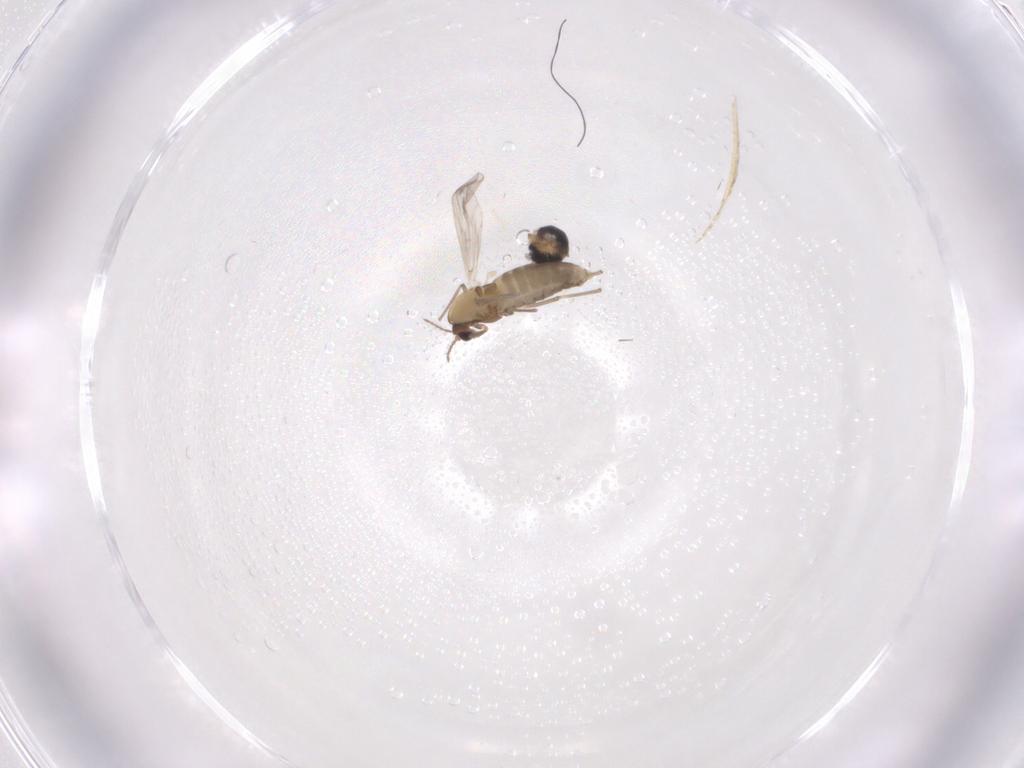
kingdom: Animalia
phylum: Arthropoda
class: Insecta
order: Diptera
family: Chironomidae
